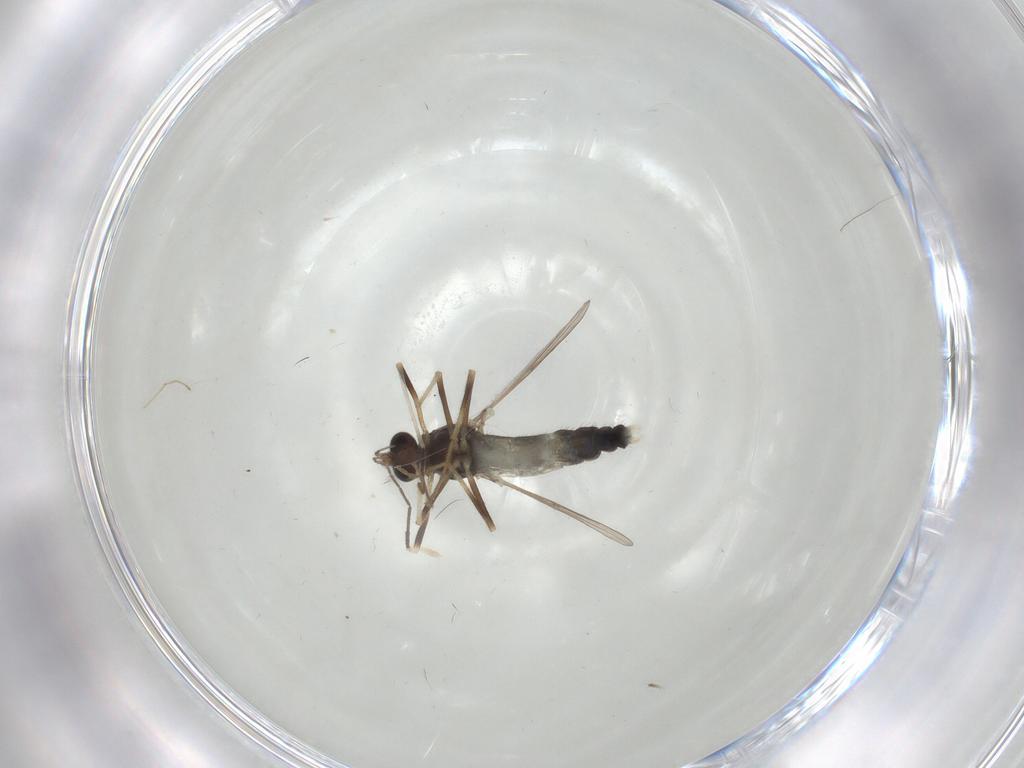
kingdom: Animalia
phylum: Arthropoda
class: Insecta
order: Diptera
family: Chironomidae
